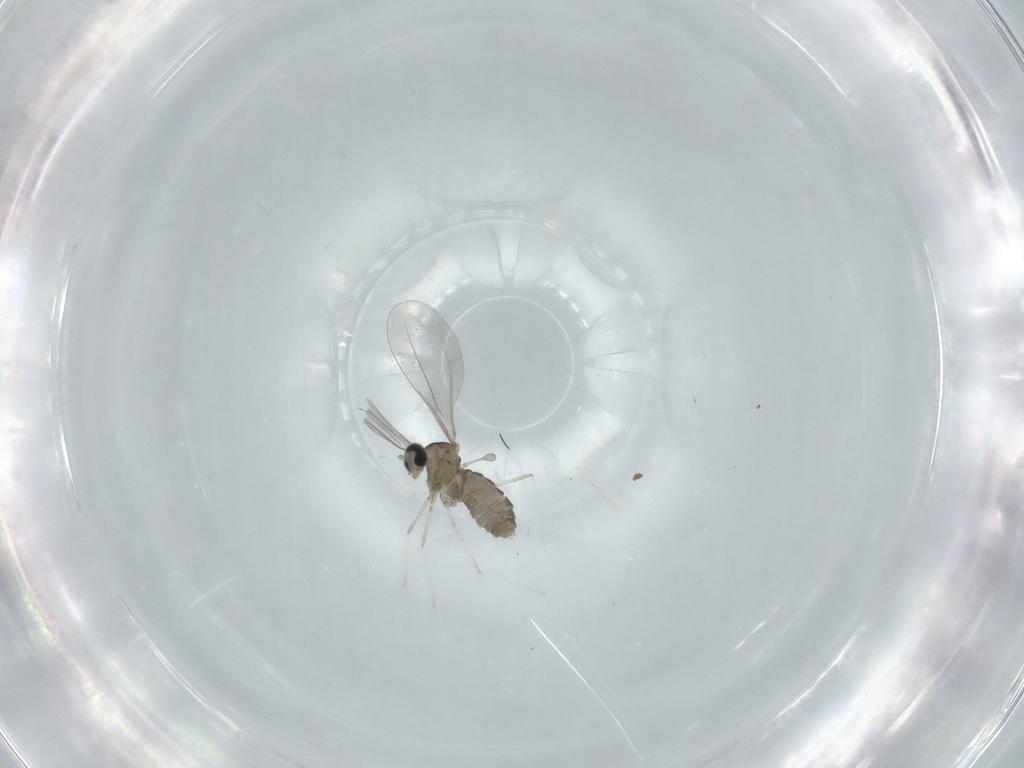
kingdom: Animalia
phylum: Arthropoda
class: Insecta
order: Diptera
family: Cecidomyiidae
